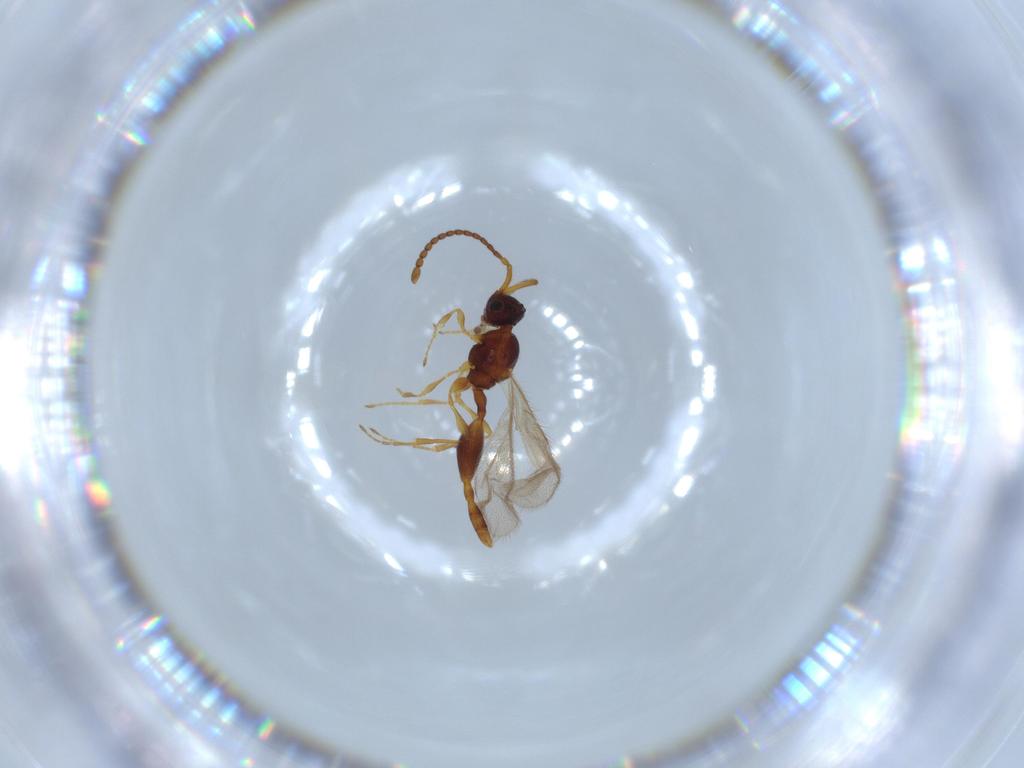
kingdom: Animalia
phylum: Arthropoda
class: Insecta
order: Hymenoptera
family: Diapriidae
